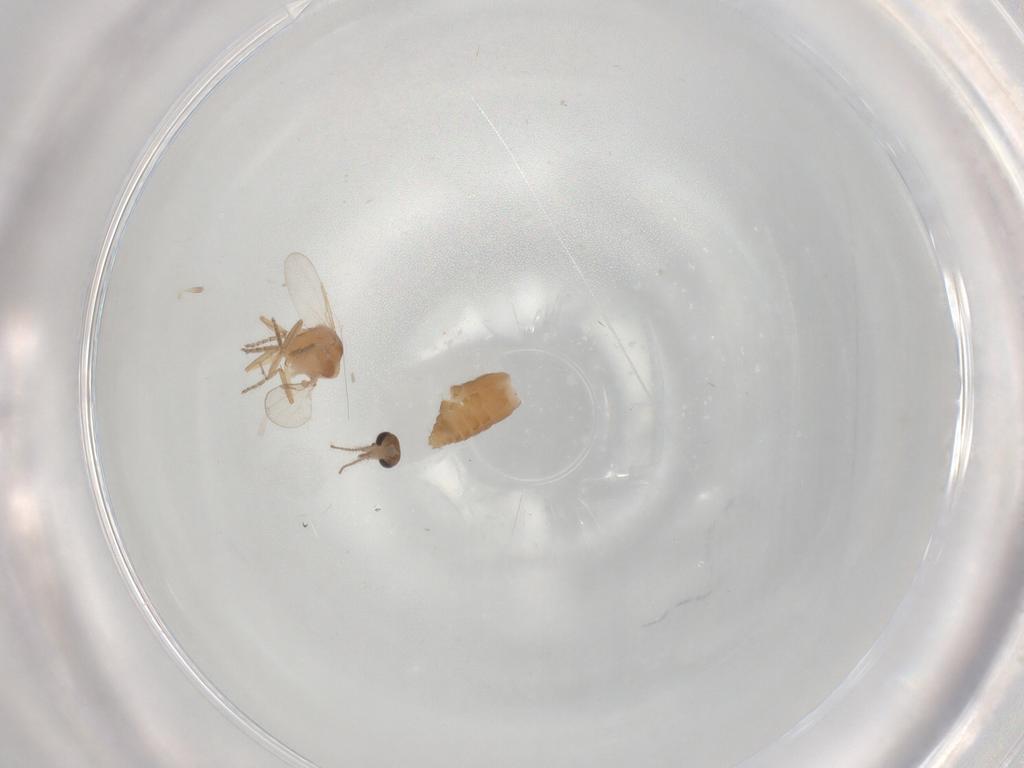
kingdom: Animalia
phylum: Arthropoda
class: Insecta
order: Diptera
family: Ceratopogonidae
